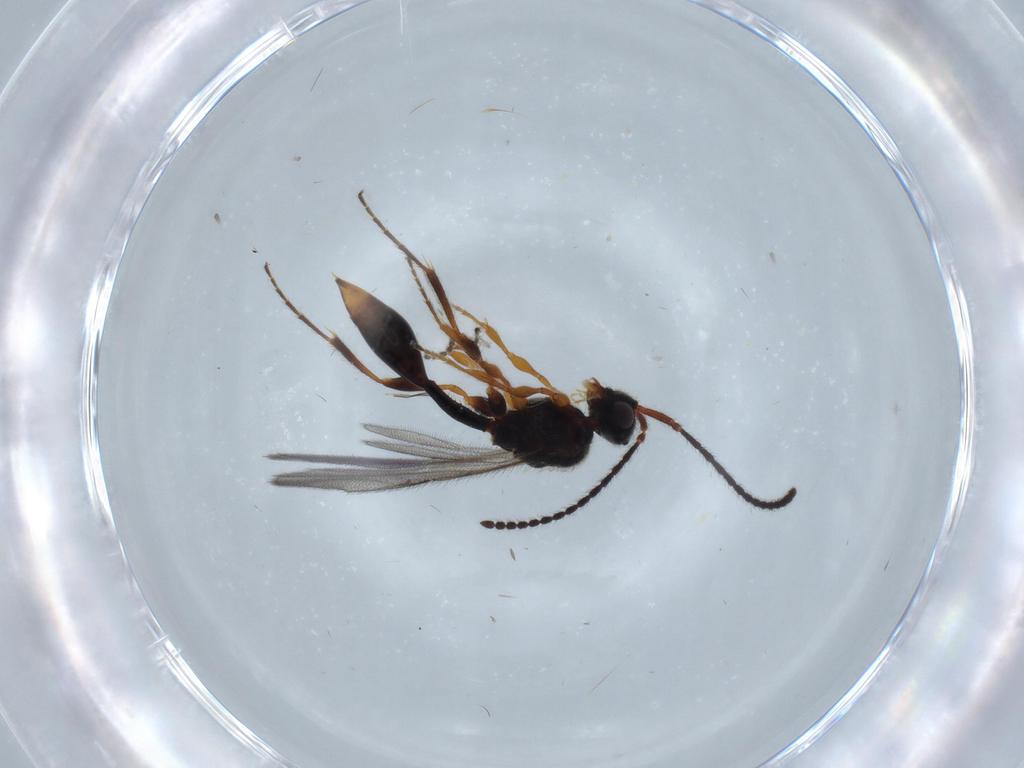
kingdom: Animalia
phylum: Arthropoda
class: Insecta
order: Hymenoptera
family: Diapriidae
